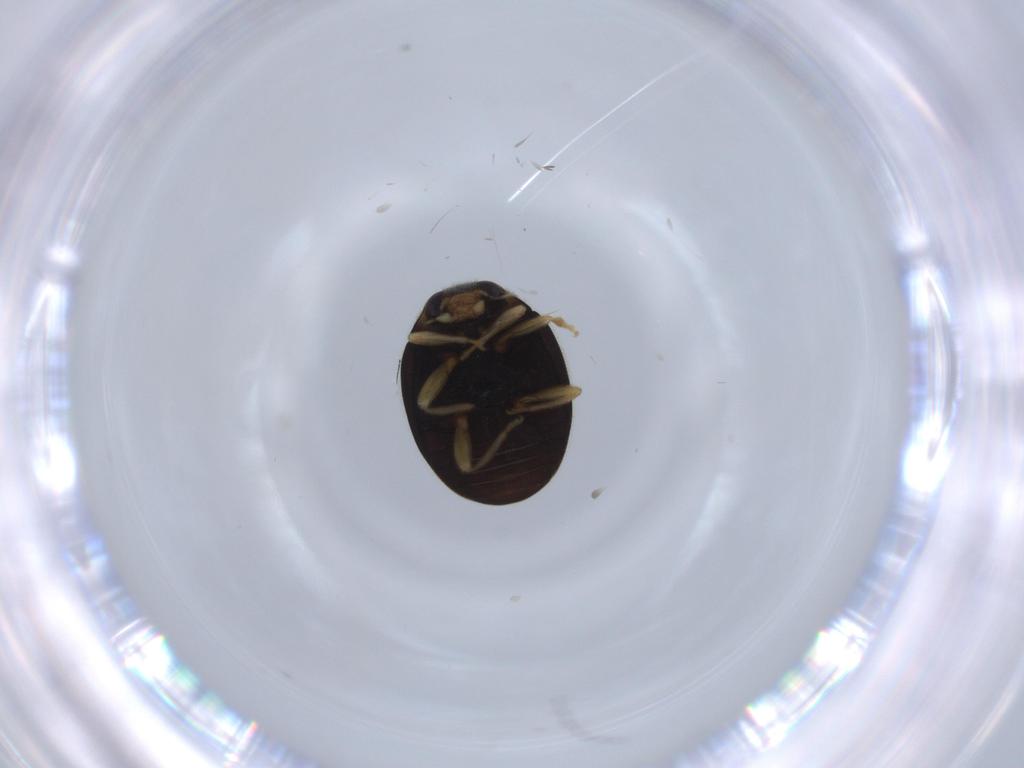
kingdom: Animalia
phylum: Arthropoda
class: Insecta
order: Coleoptera
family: Coccinellidae
